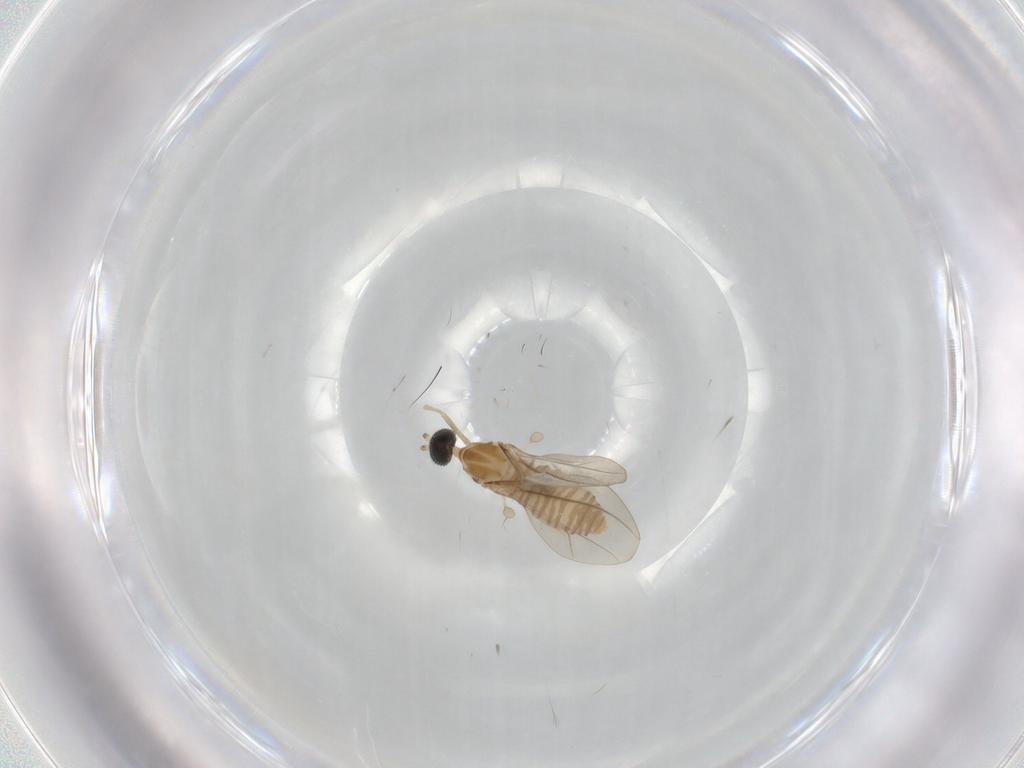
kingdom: Animalia
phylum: Arthropoda
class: Insecta
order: Diptera
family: Cecidomyiidae
